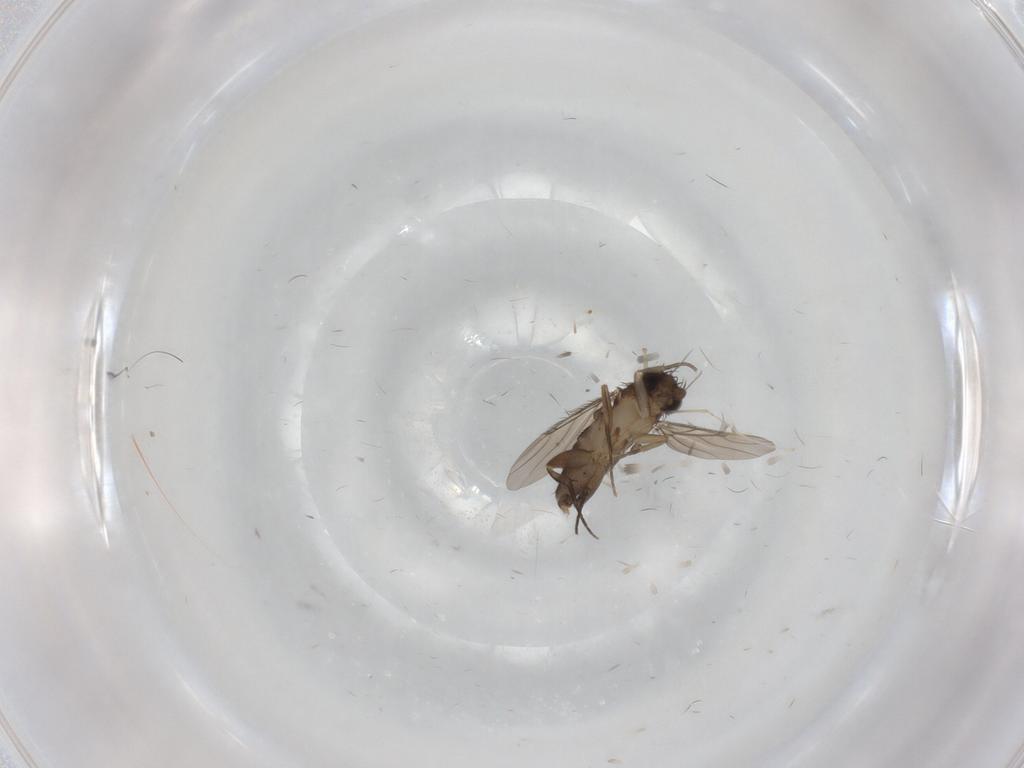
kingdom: Animalia
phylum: Arthropoda
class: Insecta
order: Diptera
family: Phoridae
